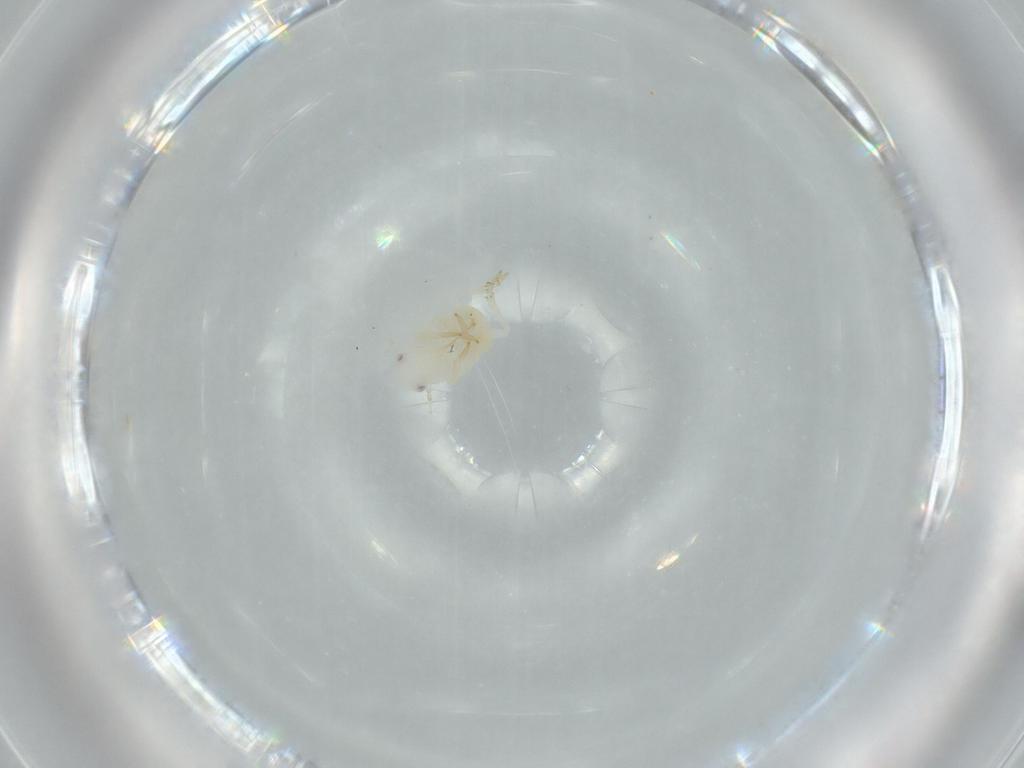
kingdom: Animalia
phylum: Arthropoda
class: Insecta
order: Hemiptera
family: Flatidae
